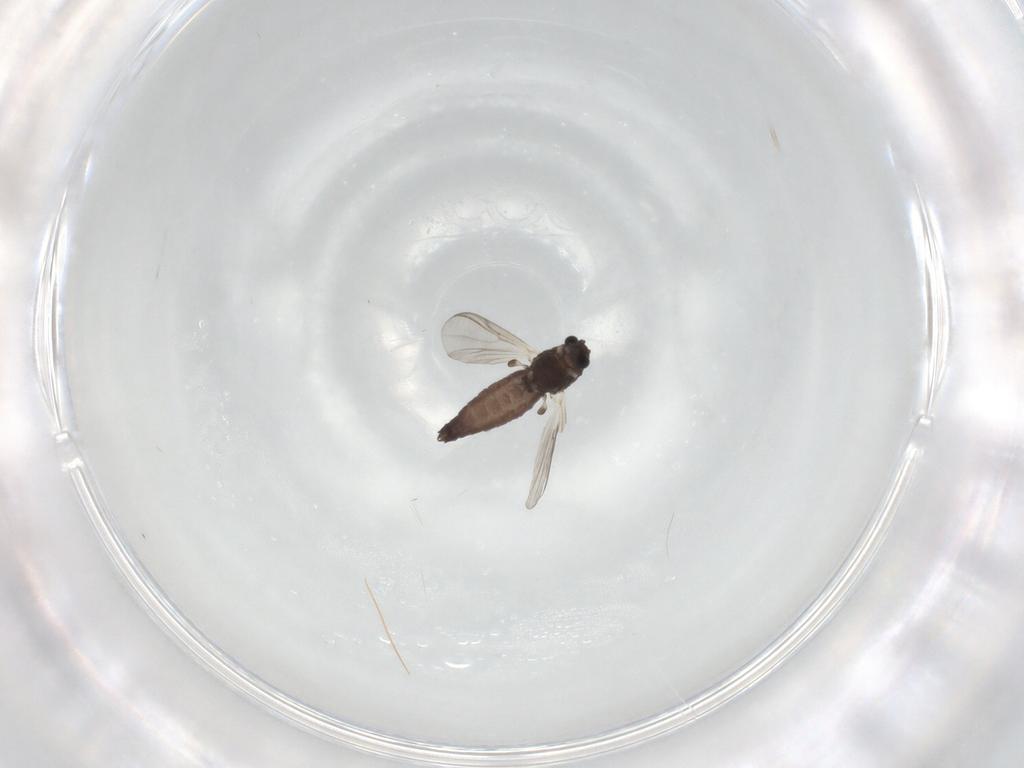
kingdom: Animalia
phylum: Arthropoda
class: Insecta
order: Diptera
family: Chironomidae
